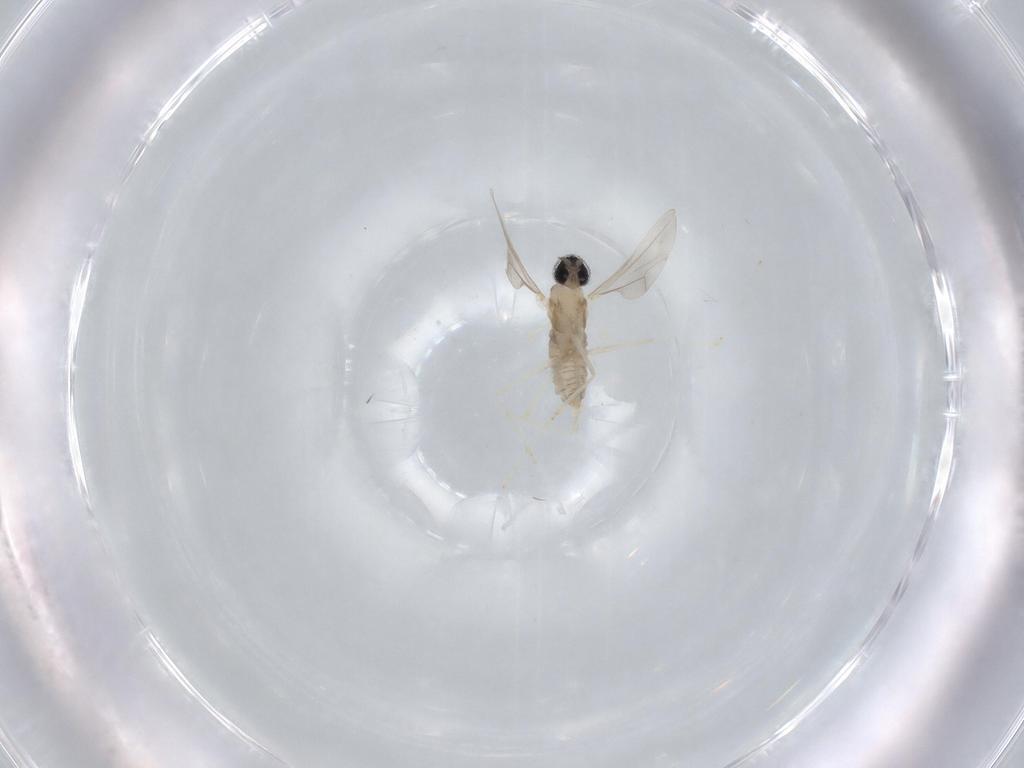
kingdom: Animalia
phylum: Arthropoda
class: Insecta
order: Diptera
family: Cecidomyiidae
